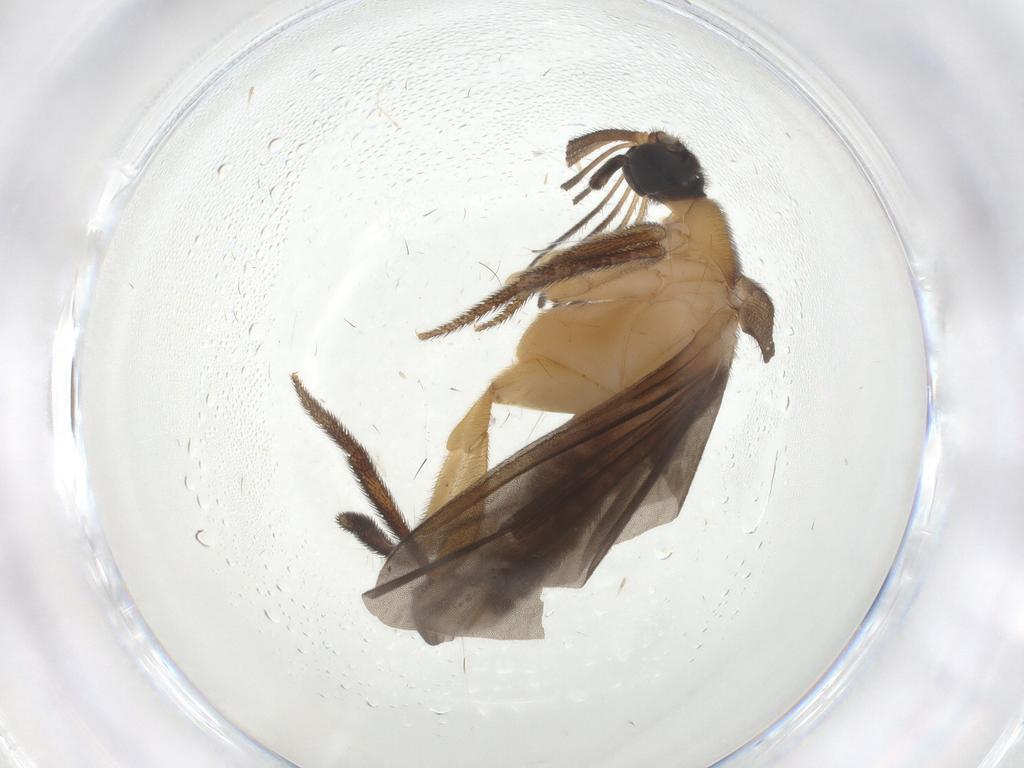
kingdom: Animalia
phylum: Arthropoda
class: Insecta
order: Coleoptera
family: Ripiphoridae
